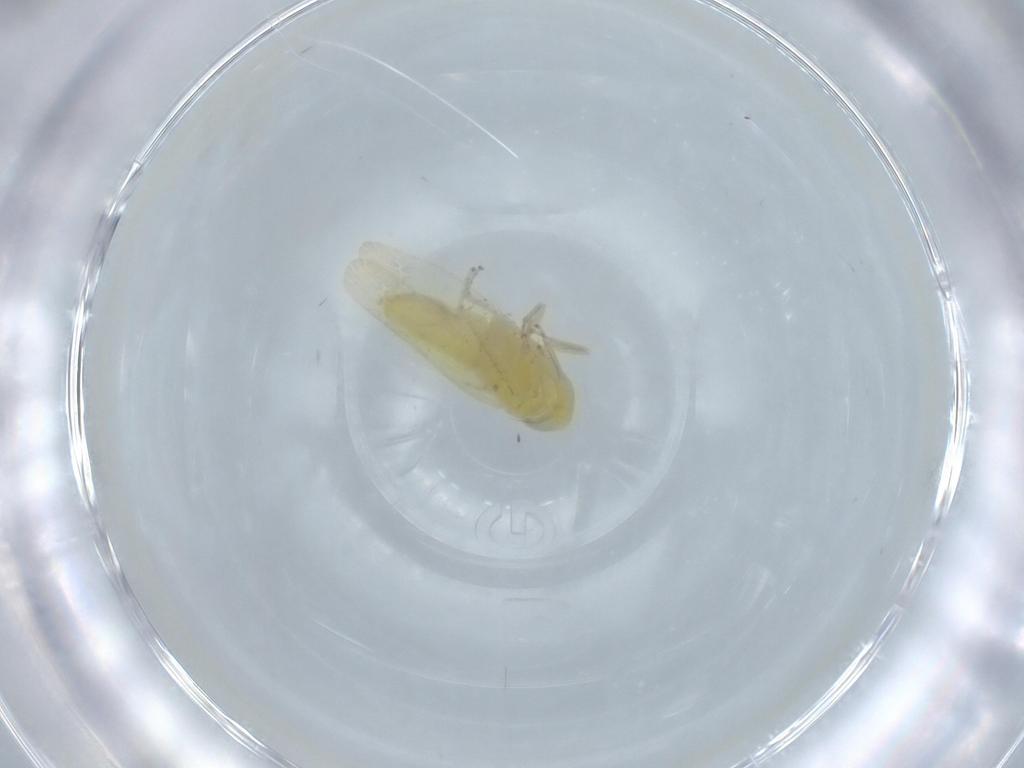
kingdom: Animalia
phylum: Arthropoda
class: Insecta
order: Hemiptera
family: Cicadellidae
